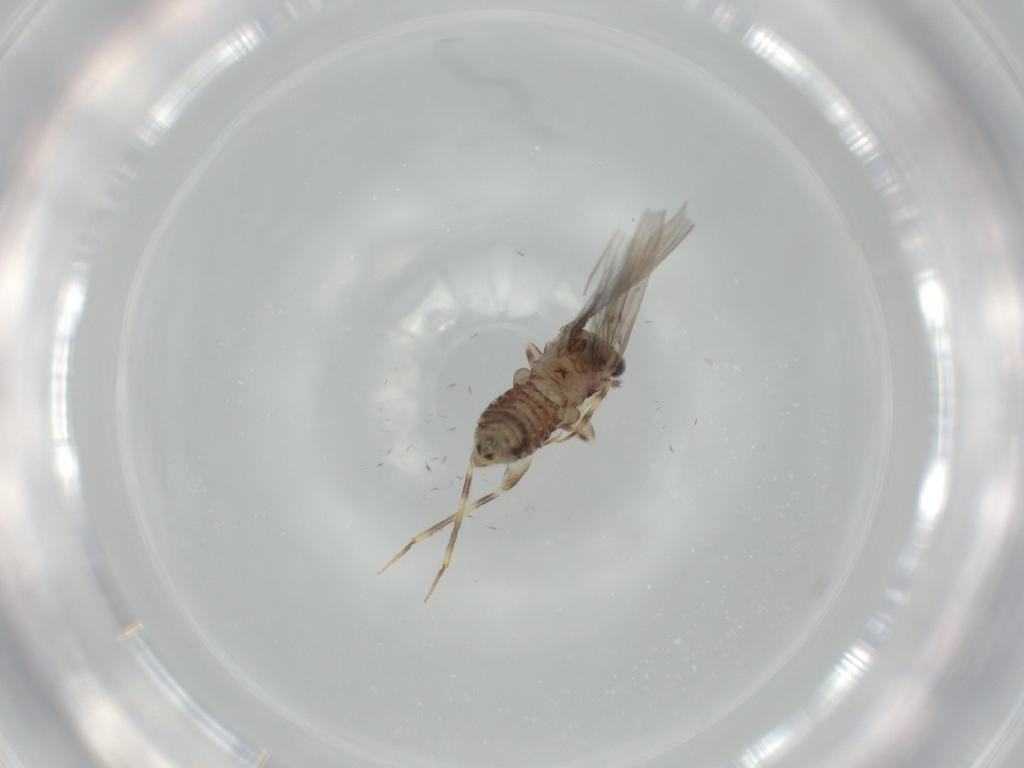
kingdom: Animalia
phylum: Arthropoda
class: Insecta
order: Psocodea
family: Lepidopsocidae
